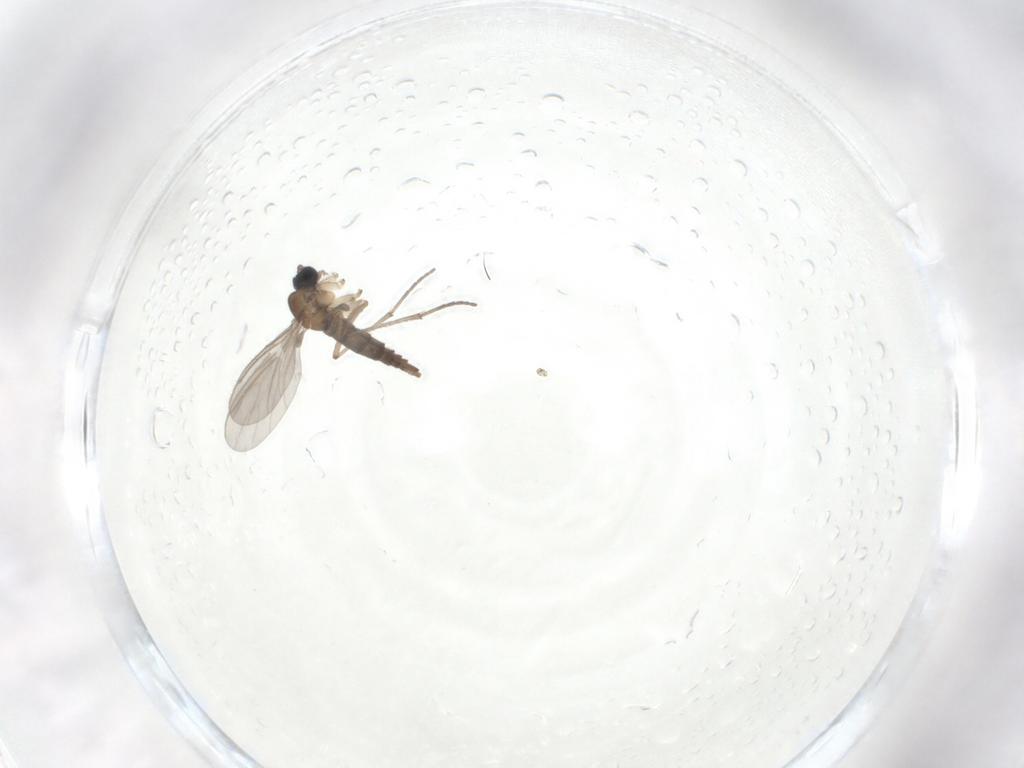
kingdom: Animalia
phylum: Arthropoda
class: Insecta
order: Diptera
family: Sciaridae
